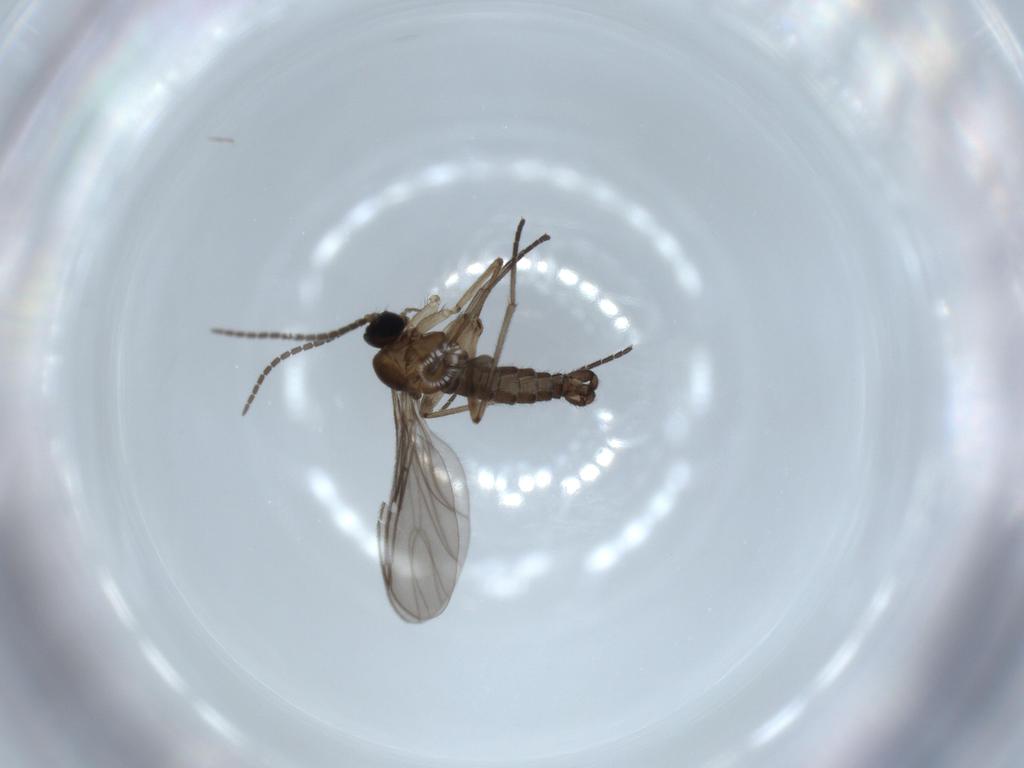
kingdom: Animalia
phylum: Arthropoda
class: Insecta
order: Diptera
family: Sciaridae
